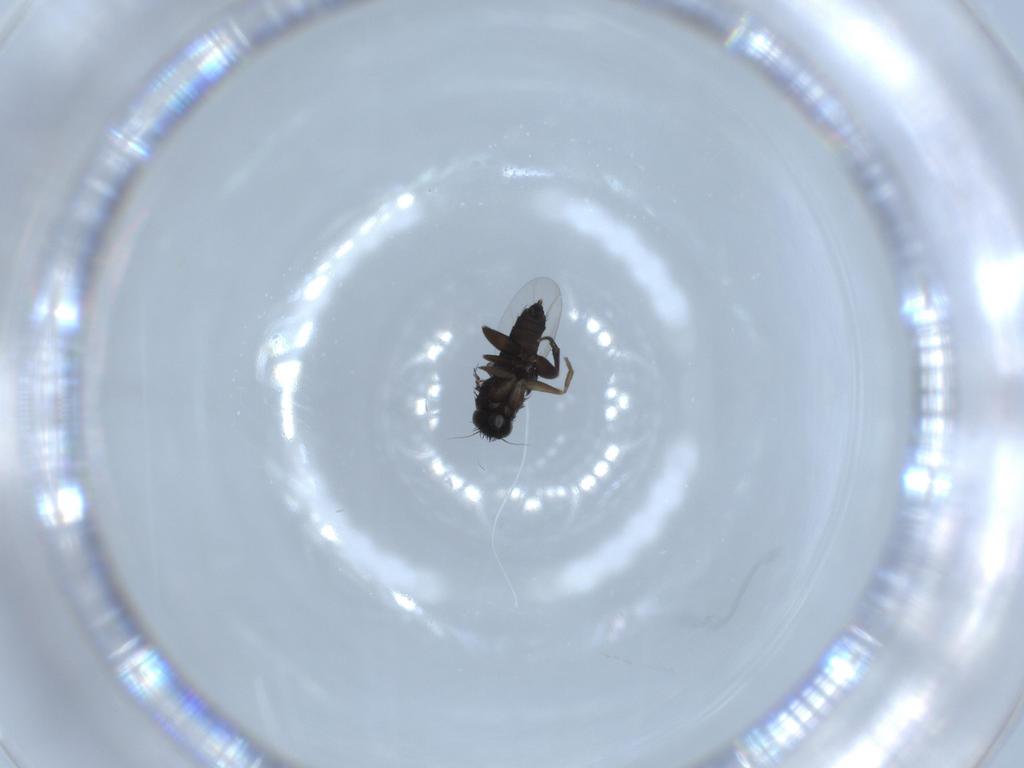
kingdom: Animalia
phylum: Arthropoda
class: Insecta
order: Diptera
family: Phoridae
